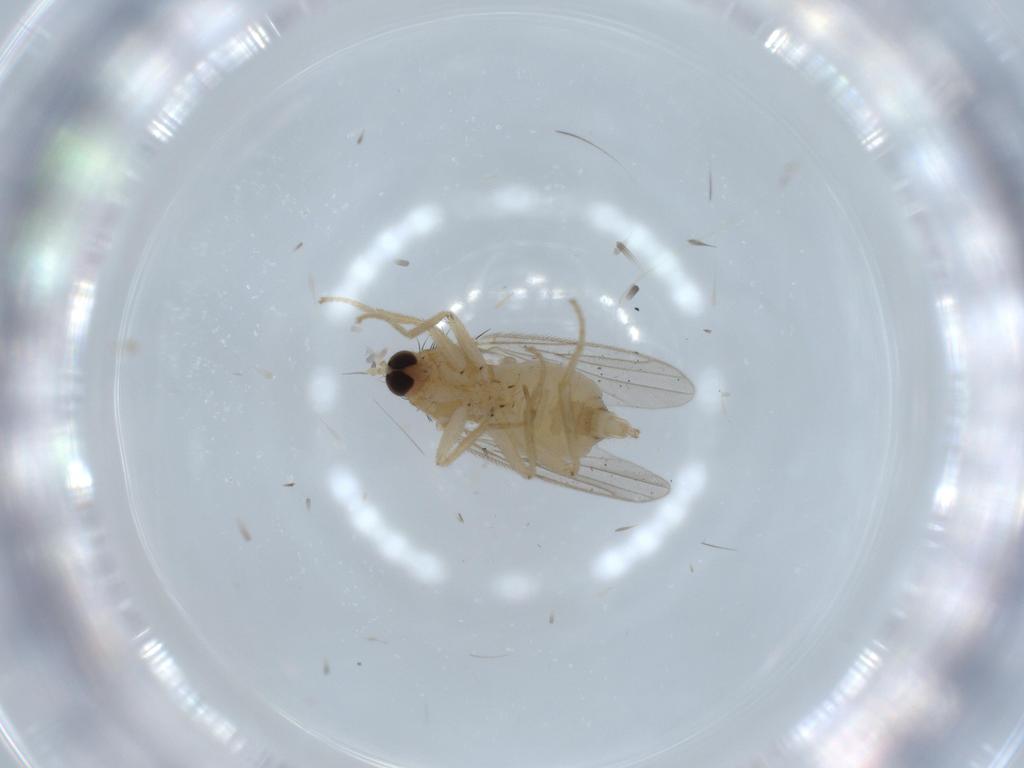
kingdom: Animalia
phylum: Arthropoda
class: Insecta
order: Diptera
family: Hybotidae
